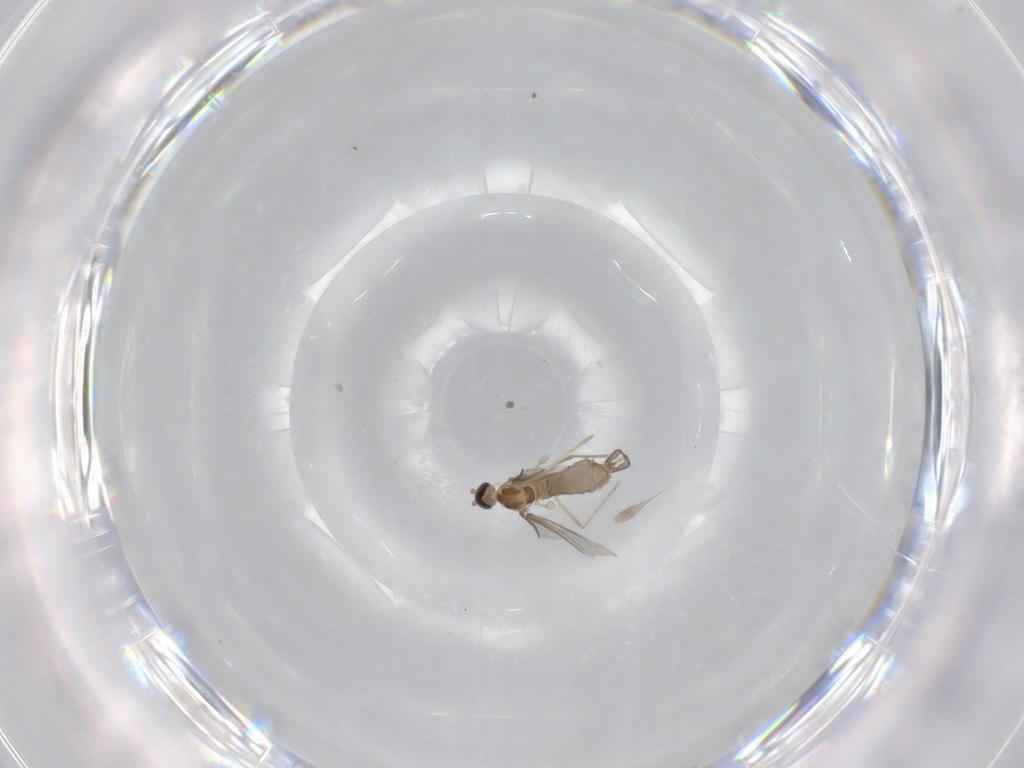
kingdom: Animalia
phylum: Arthropoda
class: Insecta
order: Diptera
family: Cecidomyiidae
